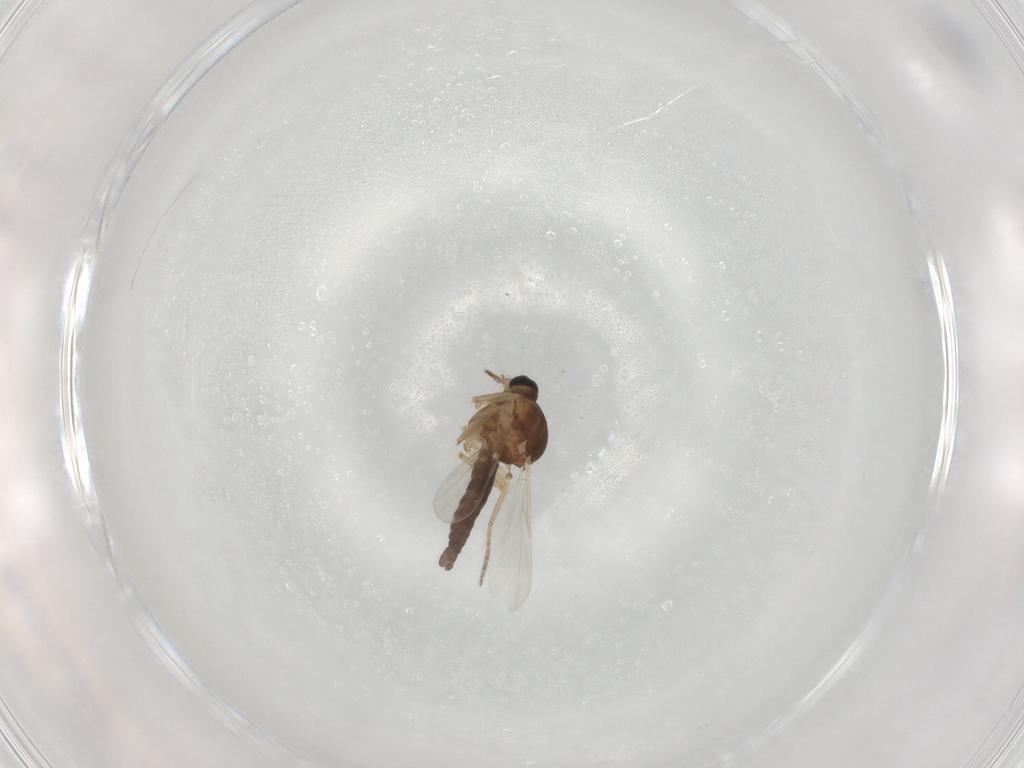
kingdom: Animalia
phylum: Arthropoda
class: Insecta
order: Diptera
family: Ceratopogonidae
